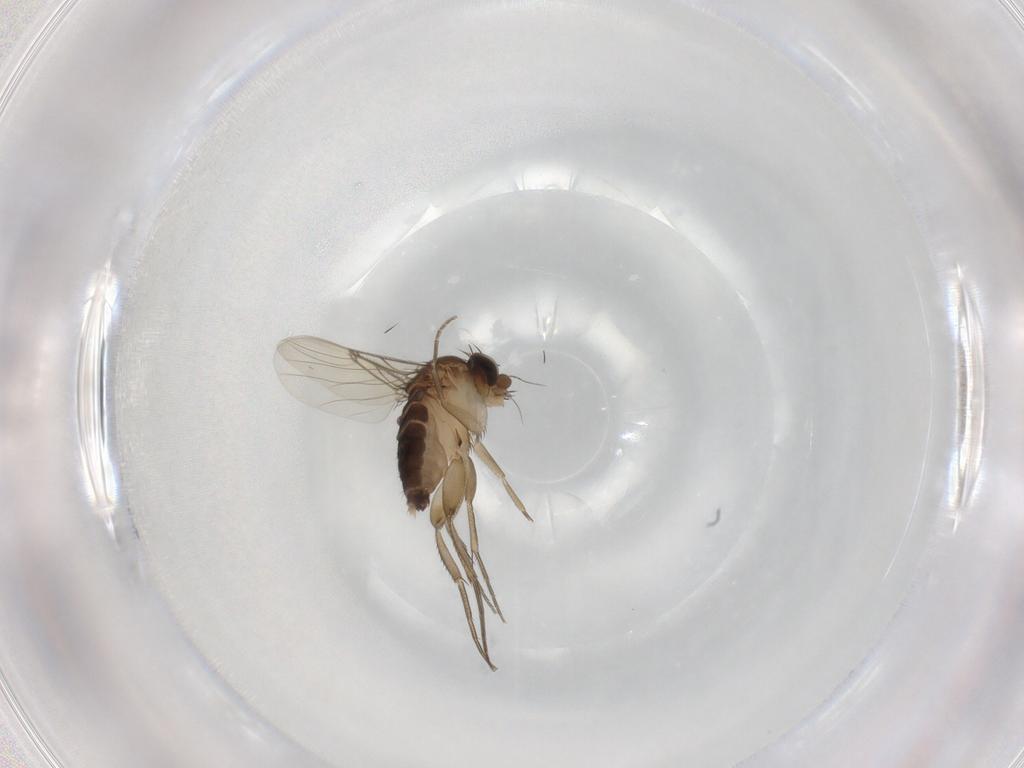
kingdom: Animalia
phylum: Arthropoda
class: Insecta
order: Diptera
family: Phoridae
